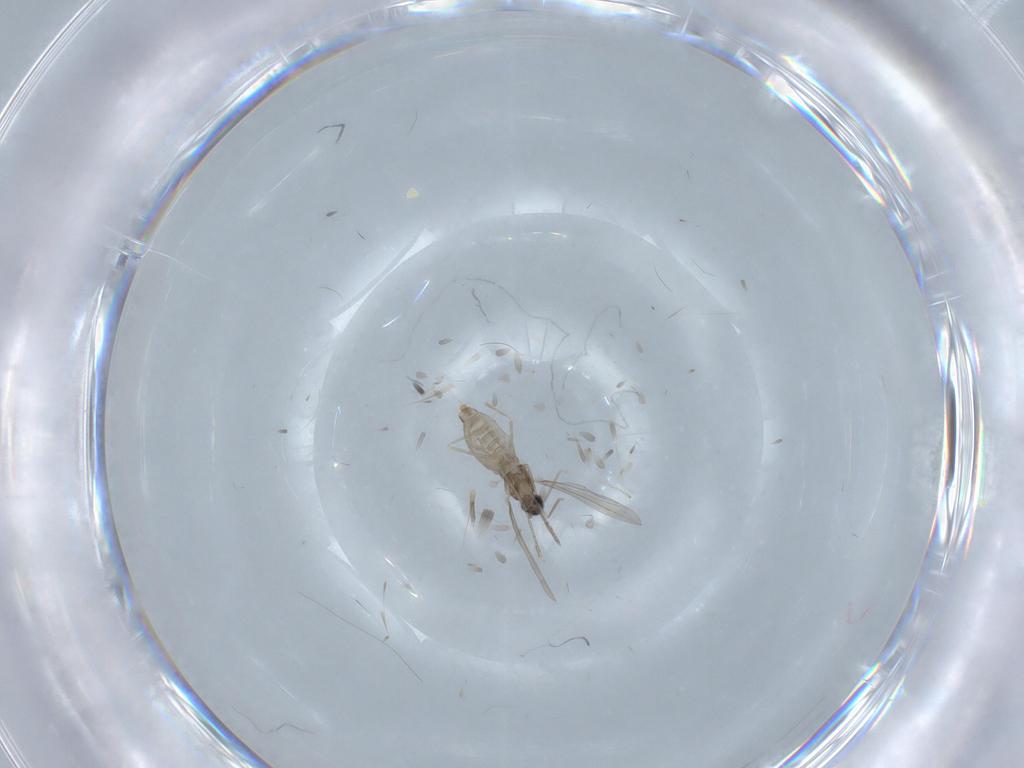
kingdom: Animalia
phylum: Arthropoda
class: Insecta
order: Diptera
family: Cecidomyiidae
